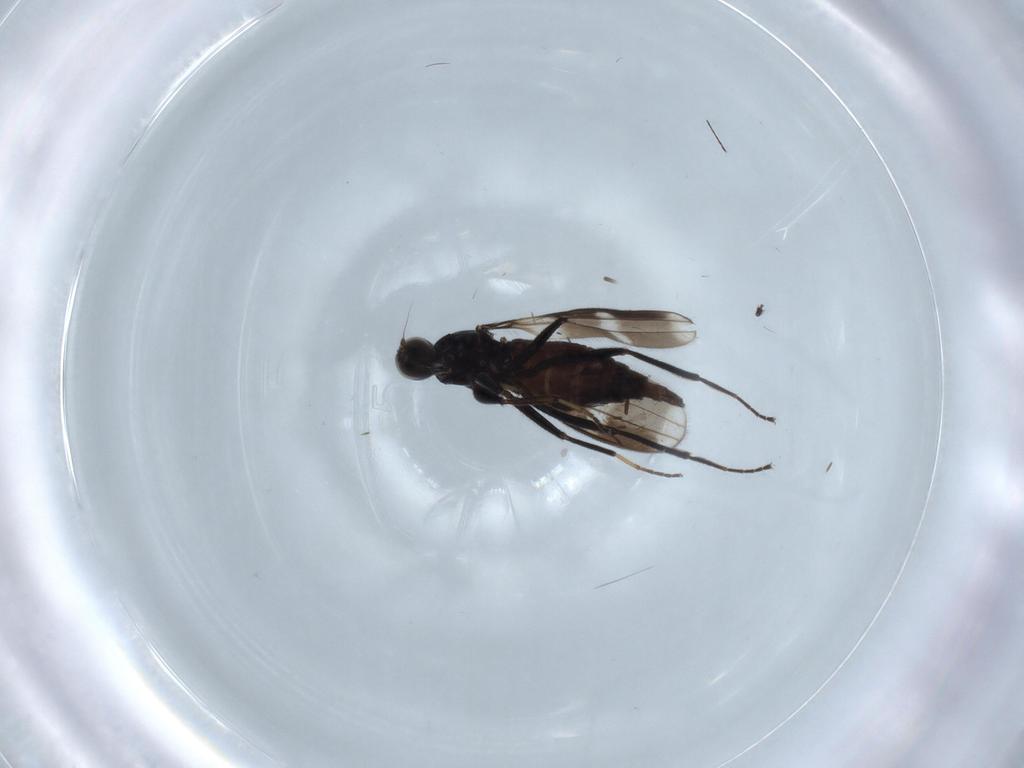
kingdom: Animalia
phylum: Arthropoda
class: Insecta
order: Diptera
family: Hybotidae
